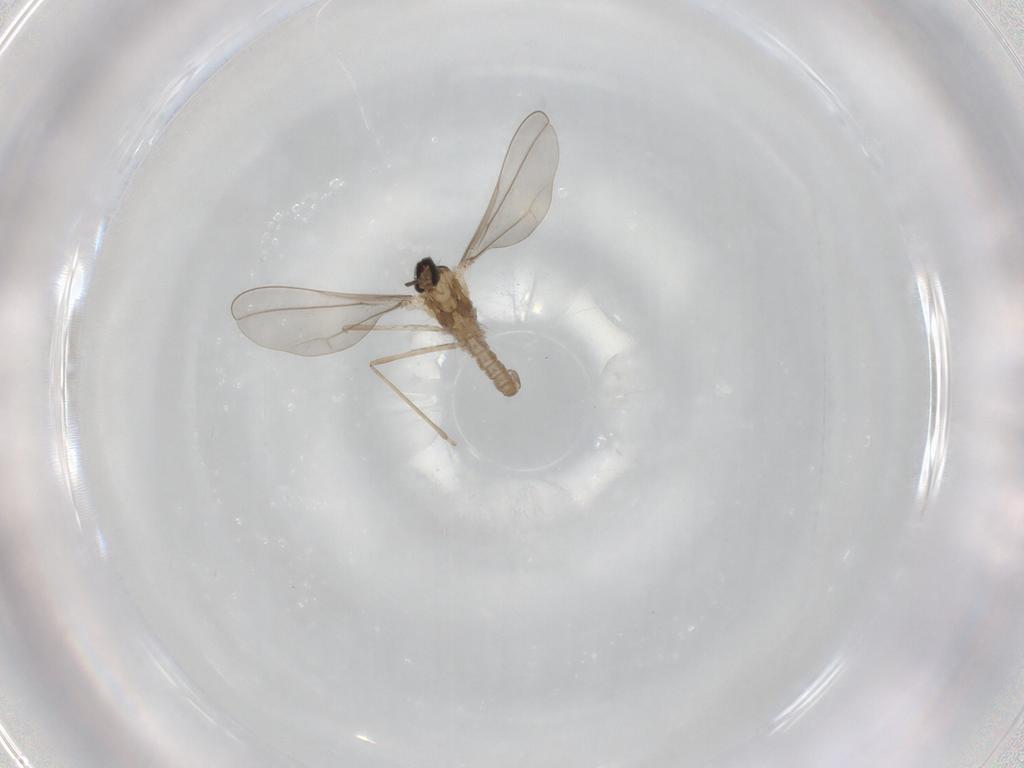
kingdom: Animalia
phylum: Arthropoda
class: Insecta
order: Diptera
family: Cecidomyiidae
